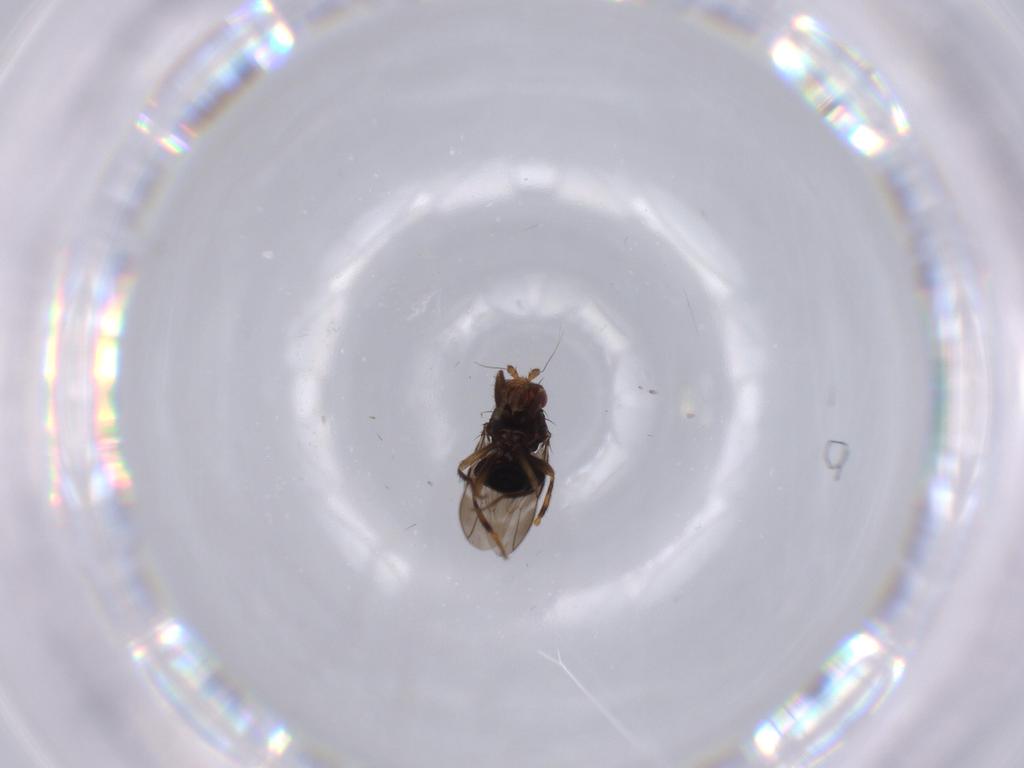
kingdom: Animalia
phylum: Arthropoda
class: Insecta
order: Diptera
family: Sphaeroceridae
